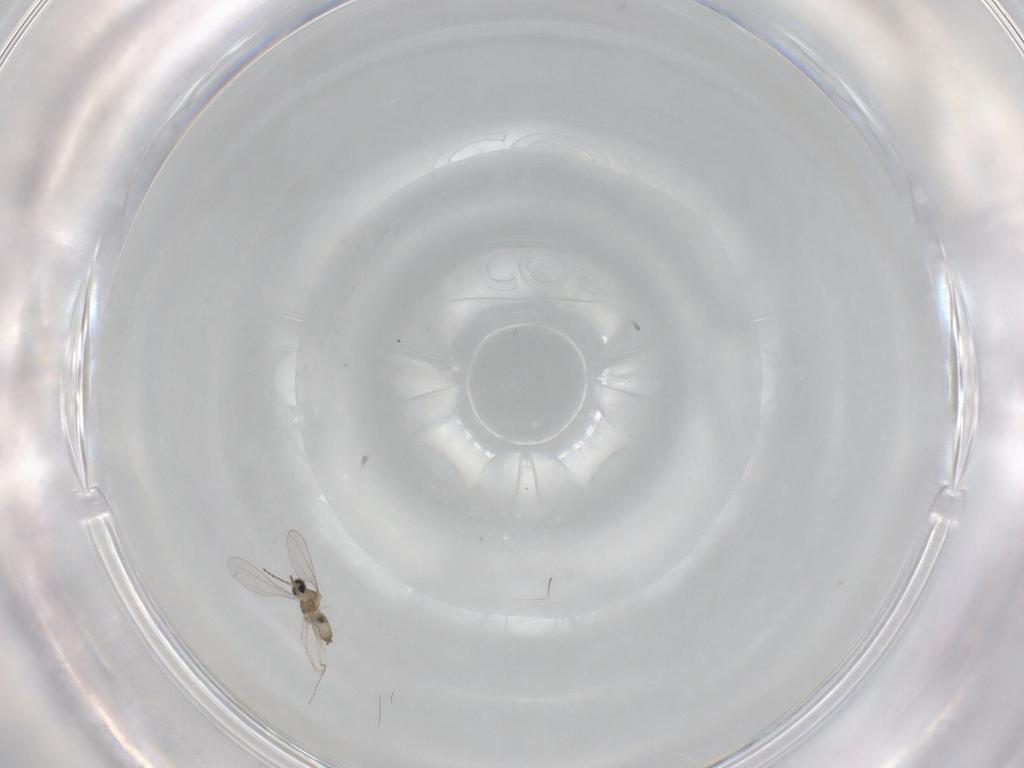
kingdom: Animalia
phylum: Arthropoda
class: Insecta
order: Diptera
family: Cecidomyiidae
